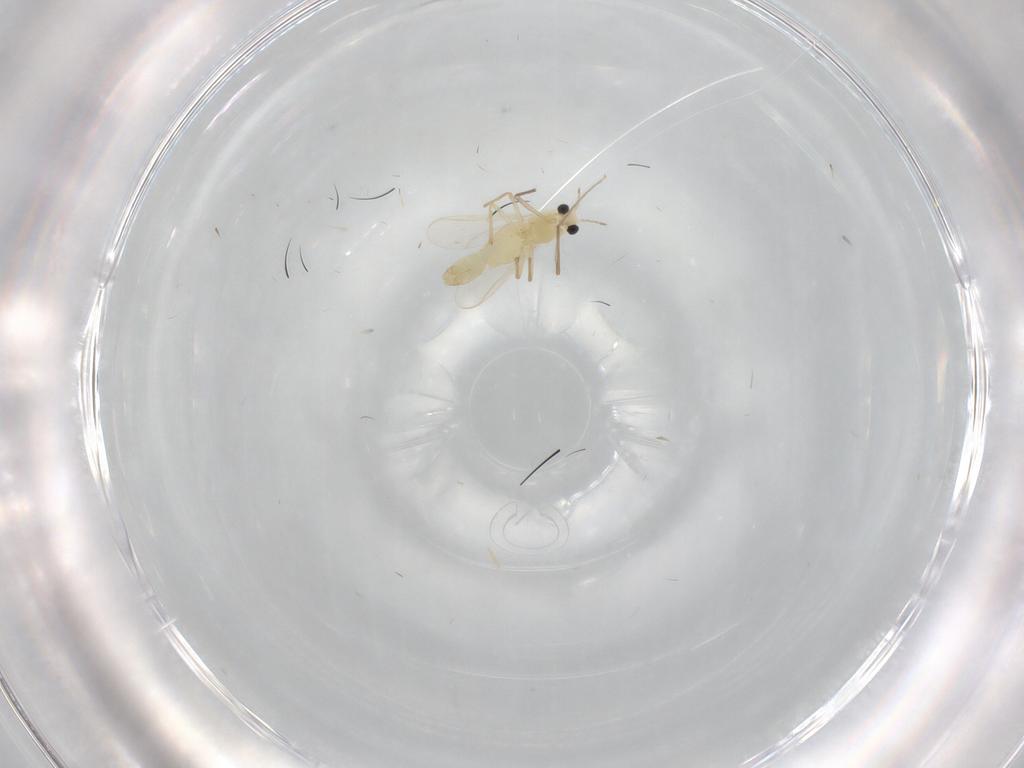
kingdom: Animalia
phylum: Arthropoda
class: Insecta
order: Diptera
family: Chironomidae
